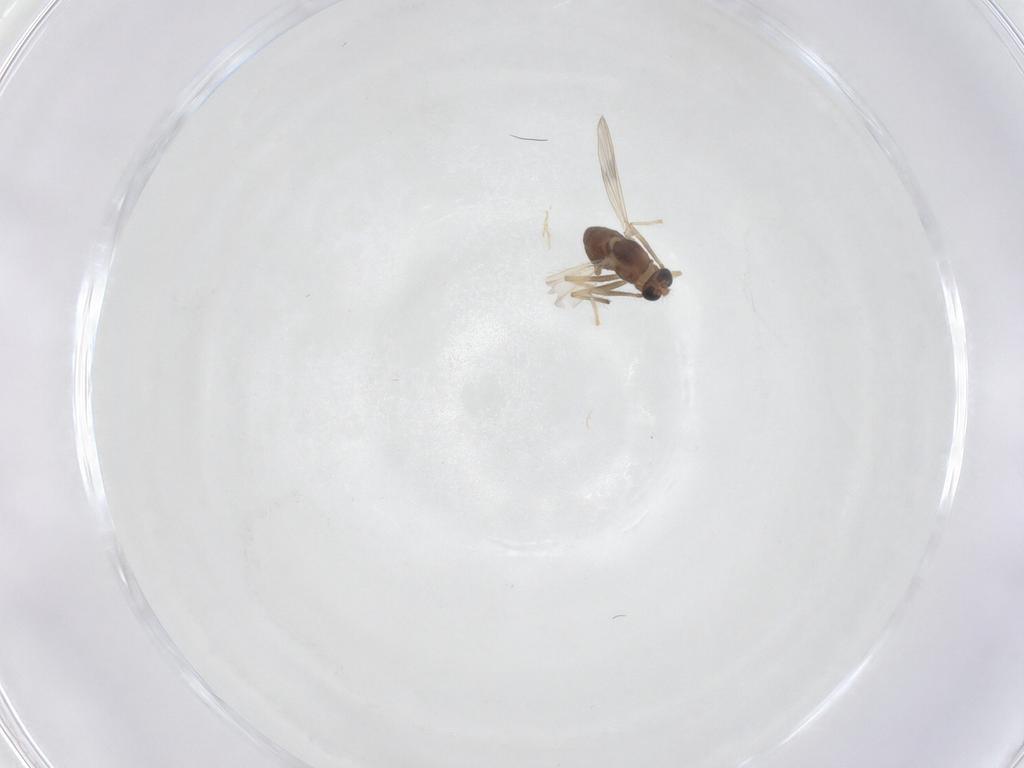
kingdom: Animalia
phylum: Arthropoda
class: Insecta
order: Diptera
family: Chironomidae
